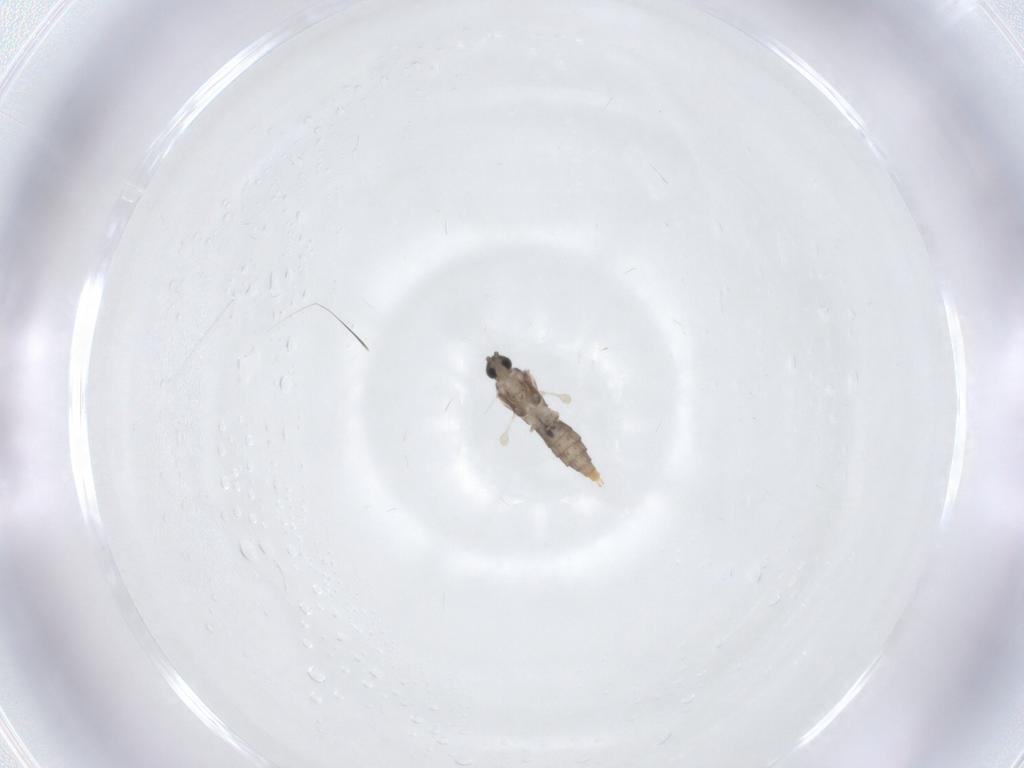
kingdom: Animalia
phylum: Arthropoda
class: Insecta
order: Diptera
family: Cecidomyiidae
